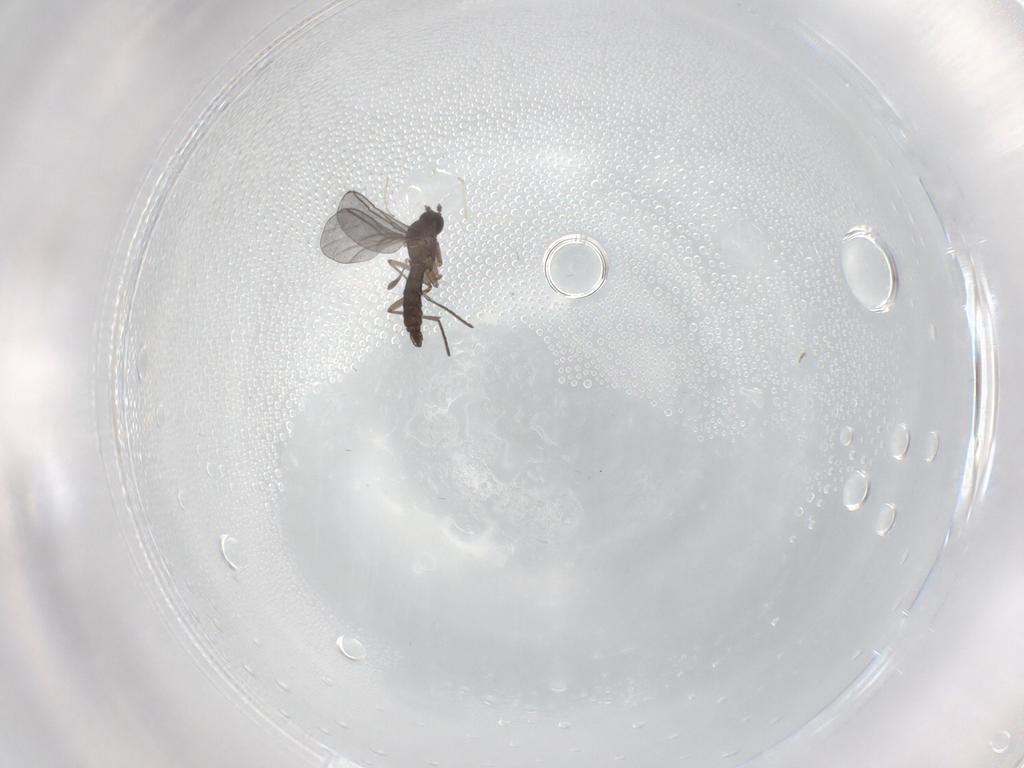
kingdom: Animalia
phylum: Arthropoda
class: Insecta
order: Diptera
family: Cecidomyiidae
